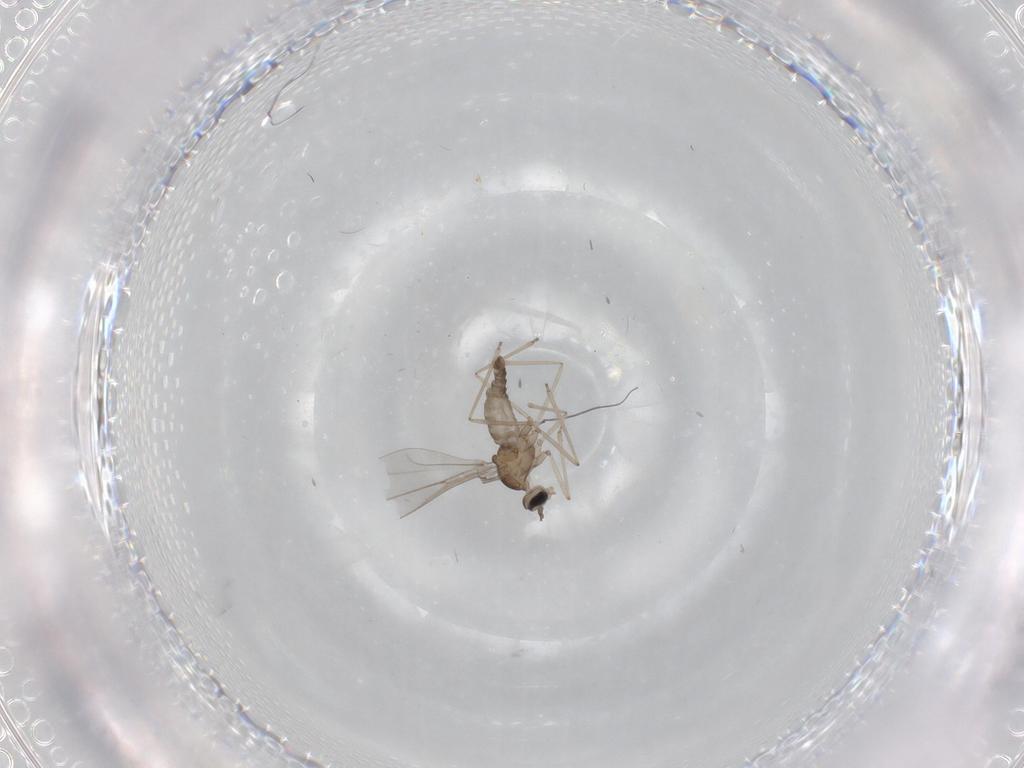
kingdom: Animalia
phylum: Arthropoda
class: Insecta
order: Diptera
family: Cecidomyiidae
